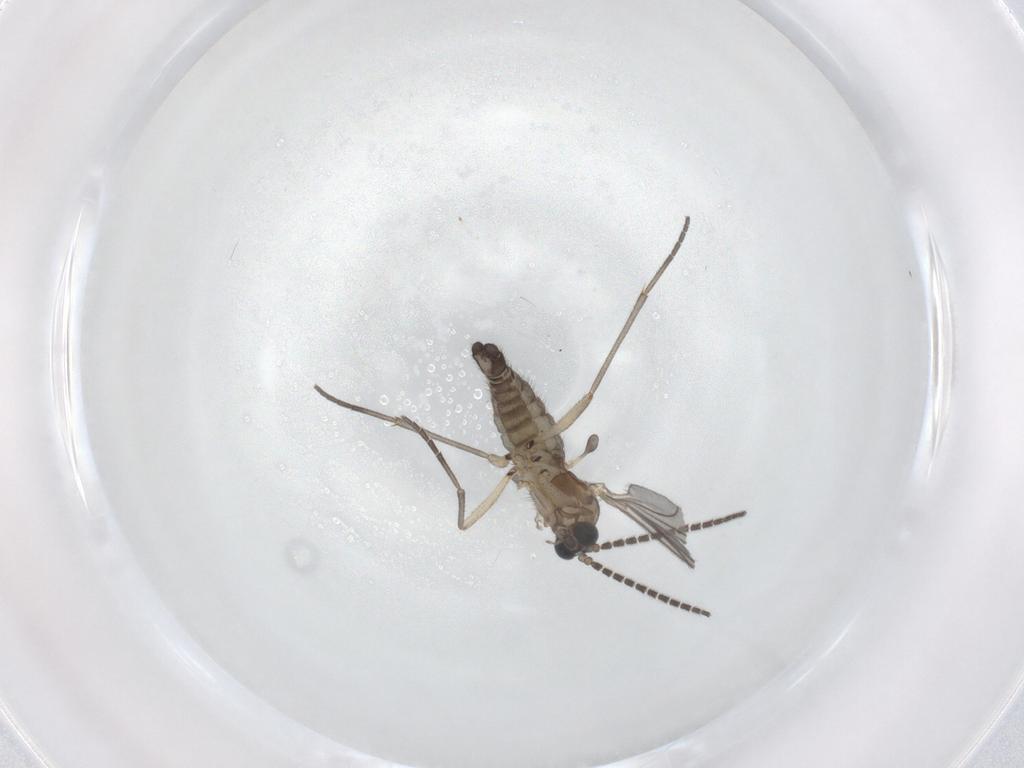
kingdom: Animalia
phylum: Arthropoda
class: Insecta
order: Diptera
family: Sciaridae
